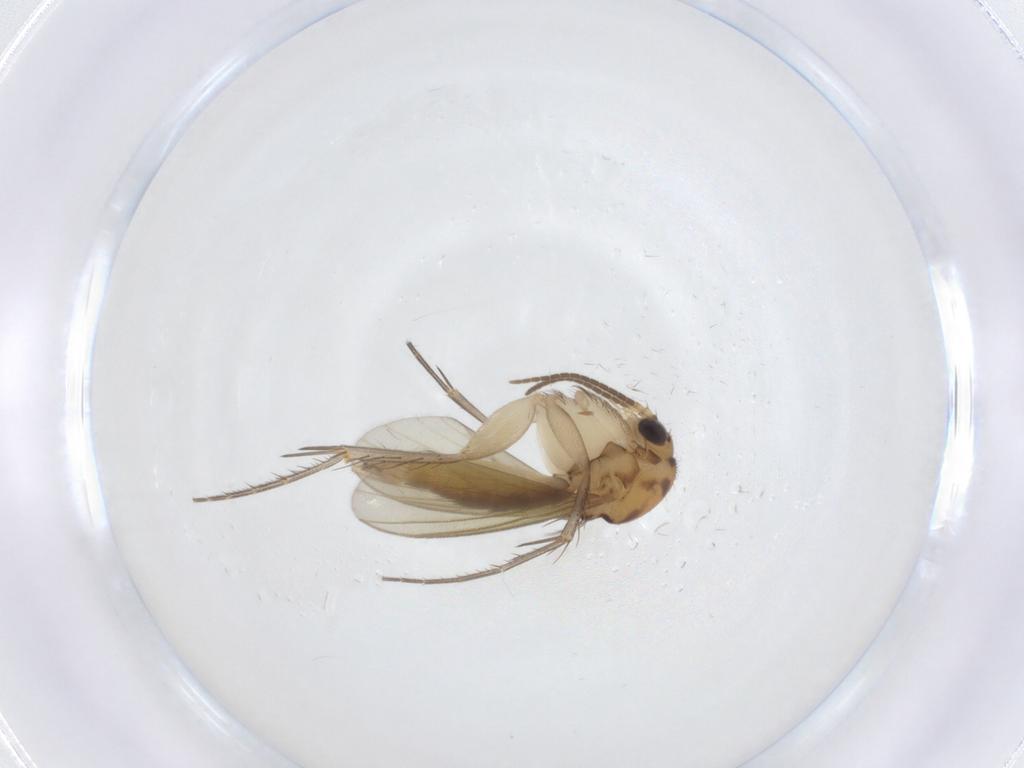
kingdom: Animalia
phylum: Arthropoda
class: Insecta
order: Diptera
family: Mycetophilidae
